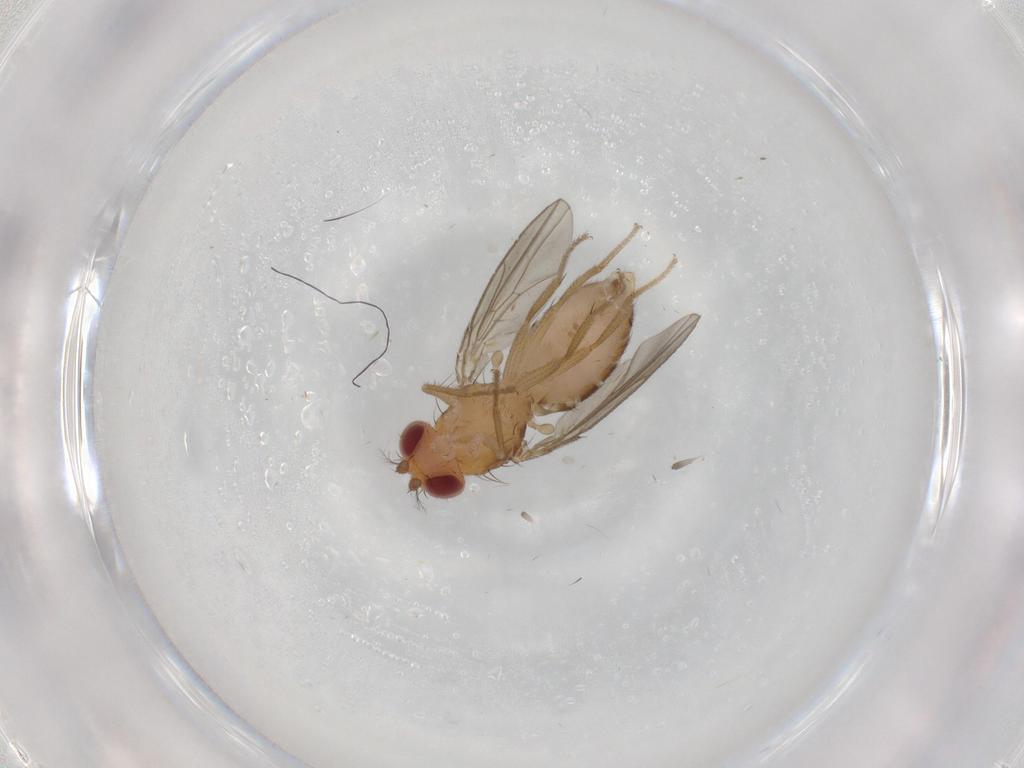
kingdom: Animalia
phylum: Arthropoda
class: Insecta
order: Diptera
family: Drosophilidae
